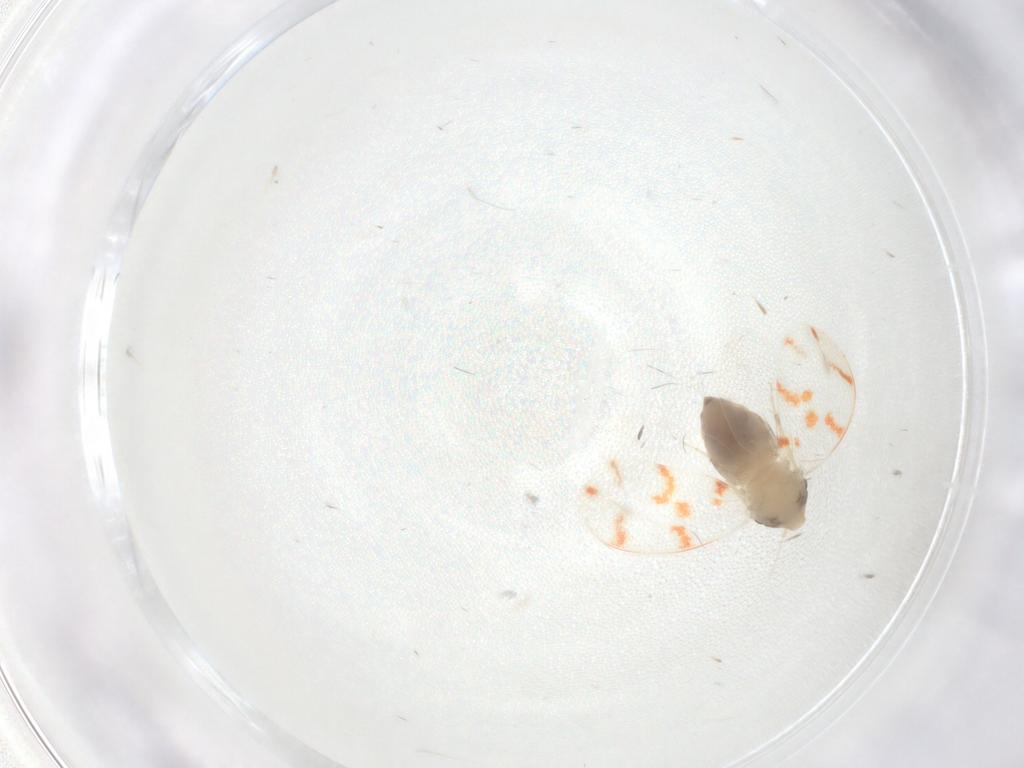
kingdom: Animalia
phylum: Arthropoda
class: Insecta
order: Hemiptera
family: Aleyrodidae
